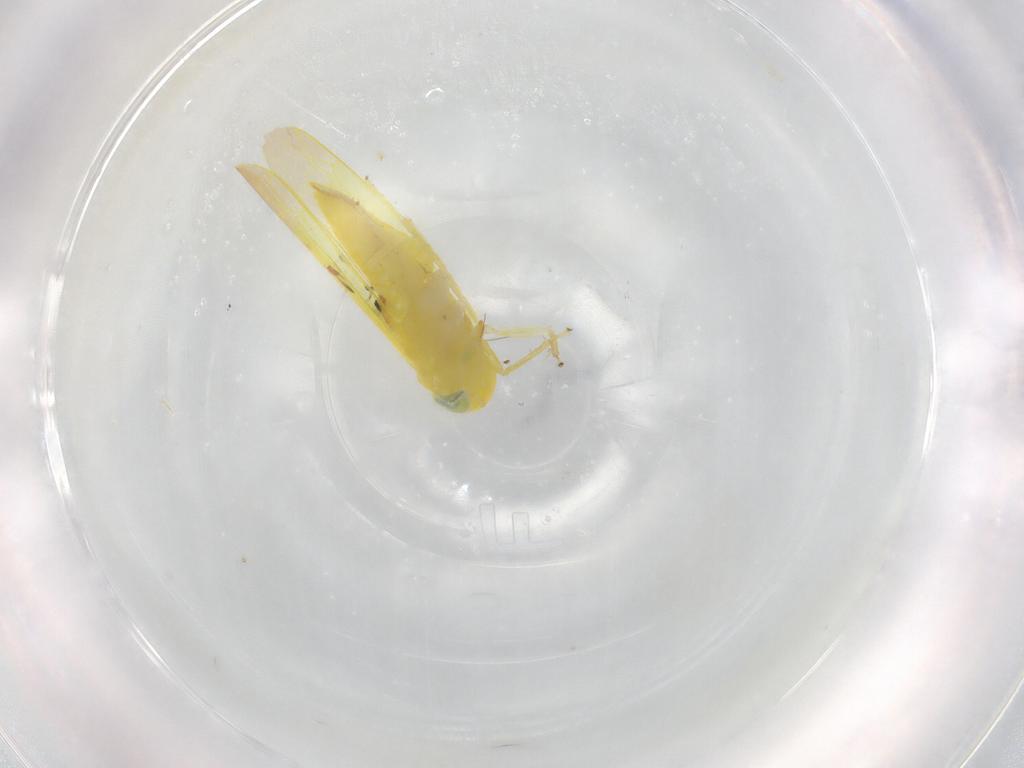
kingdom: Animalia
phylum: Arthropoda
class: Insecta
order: Hemiptera
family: Cicadellidae
